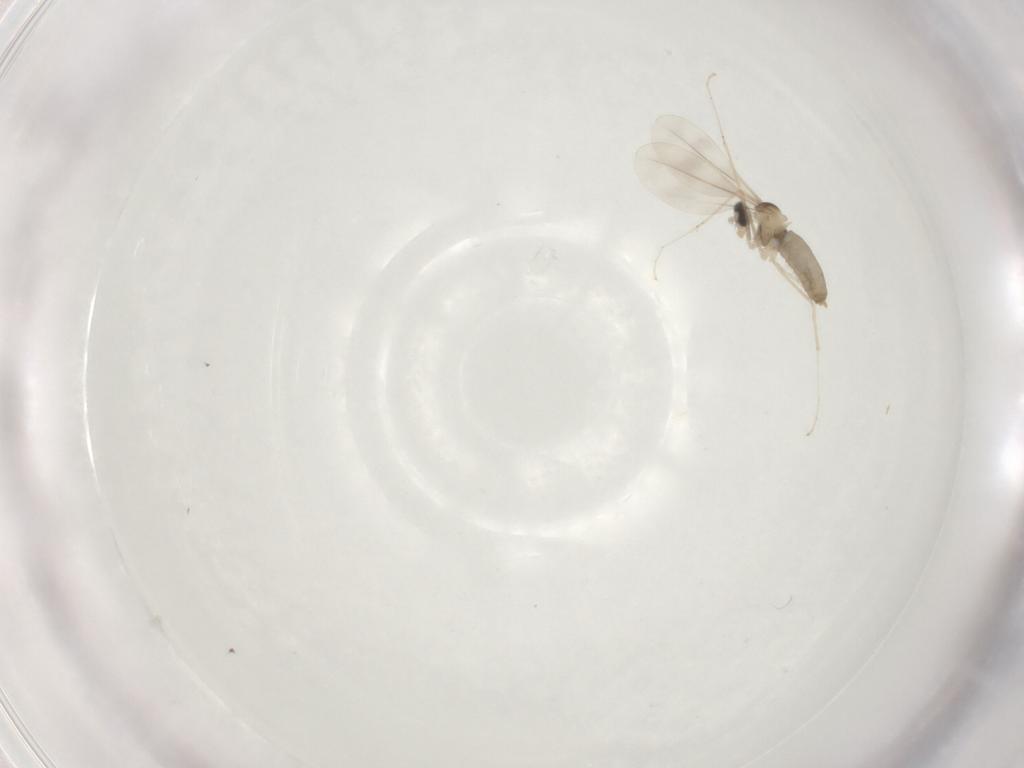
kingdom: Animalia
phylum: Arthropoda
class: Insecta
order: Diptera
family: Cecidomyiidae
